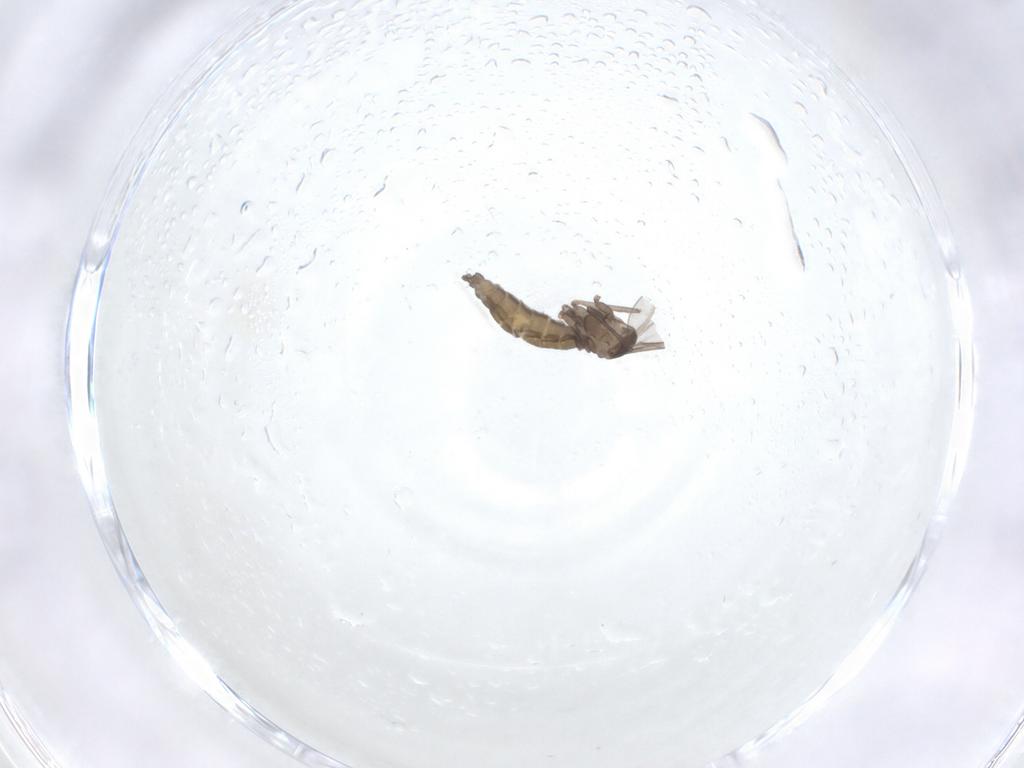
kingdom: Animalia
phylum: Arthropoda
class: Insecta
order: Diptera
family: Cecidomyiidae
